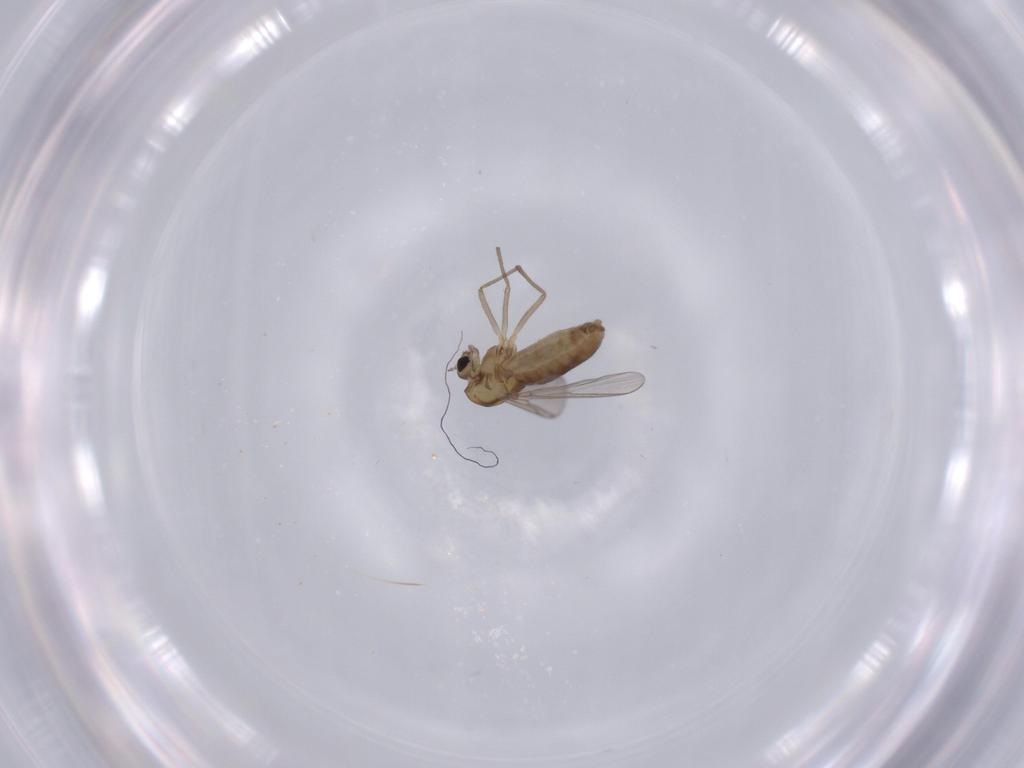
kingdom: Animalia
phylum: Arthropoda
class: Insecta
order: Diptera
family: Chironomidae
